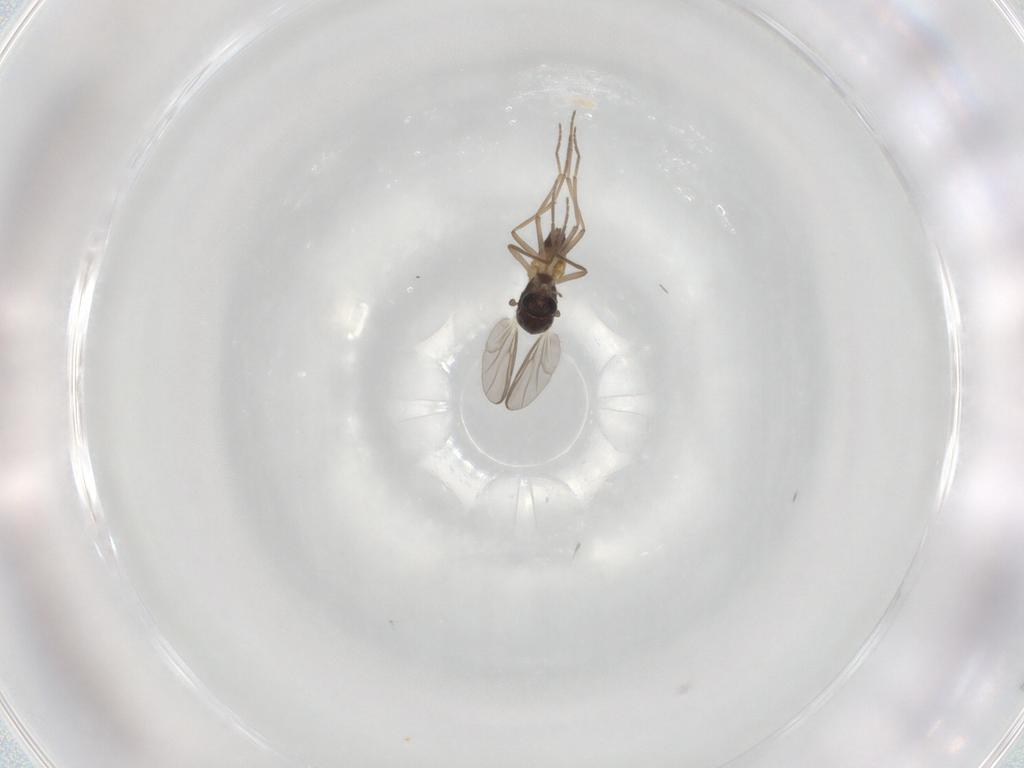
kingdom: Animalia
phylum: Arthropoda
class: Insecta
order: Diptera
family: Chironomidae
